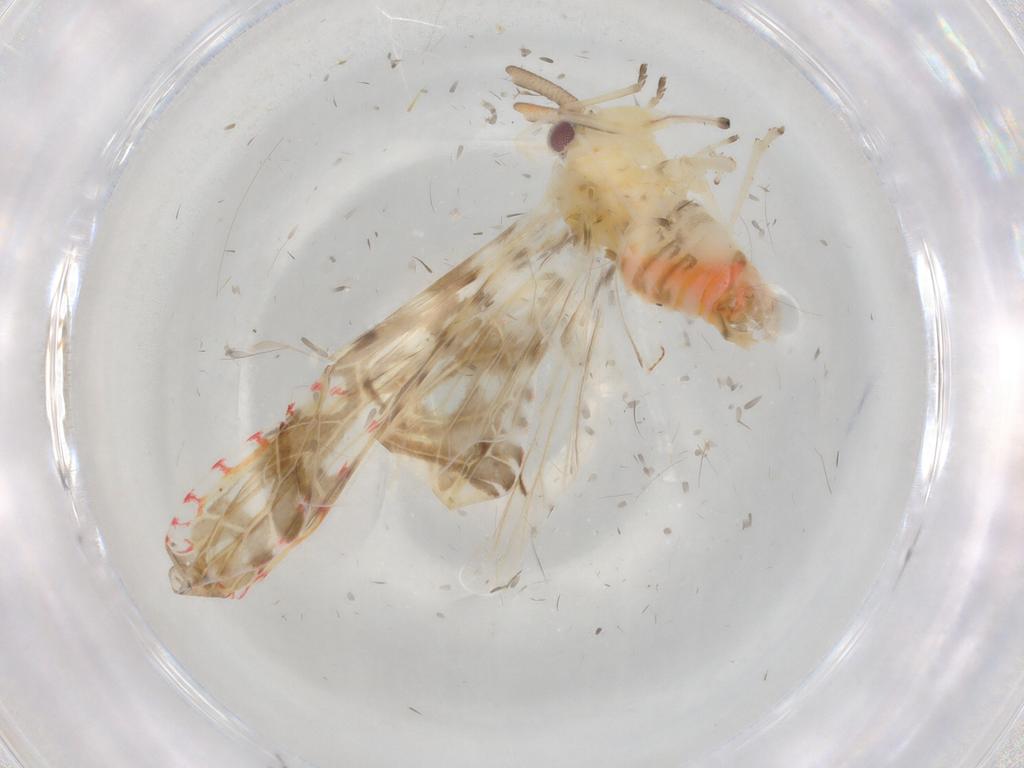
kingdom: Animalia
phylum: Arthropoda
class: Insecta
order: Hemiptera
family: Derbidae
